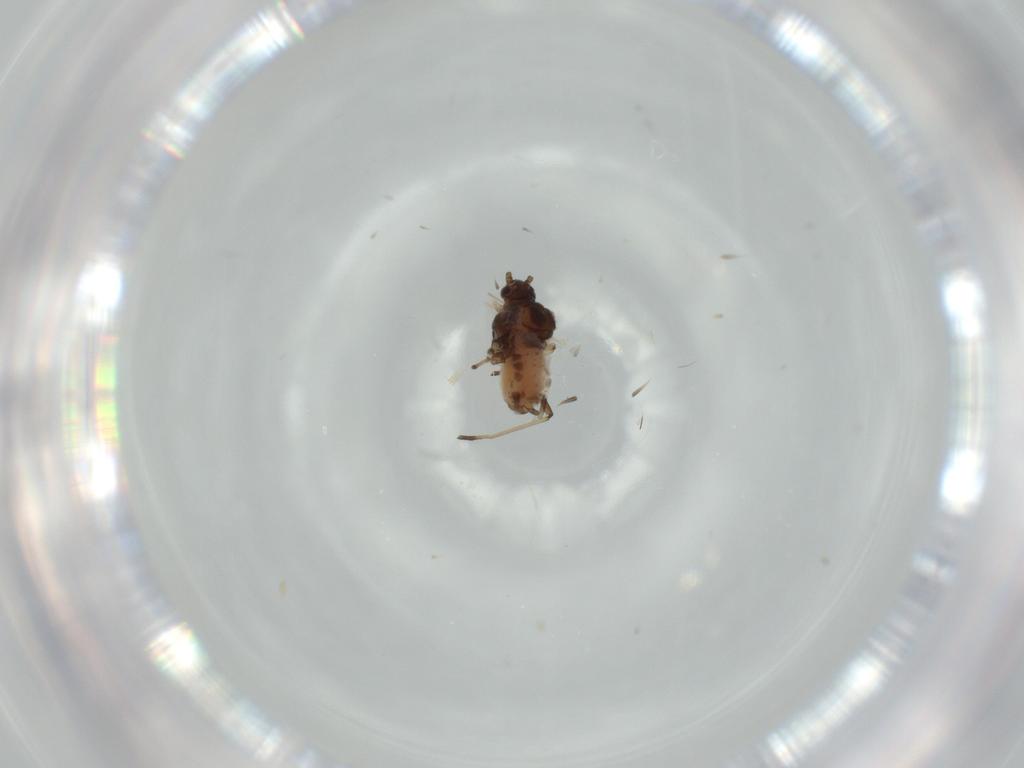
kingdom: Animalia
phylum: Arthropoda
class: Insecta
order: Hemiptera
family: Aphididae
